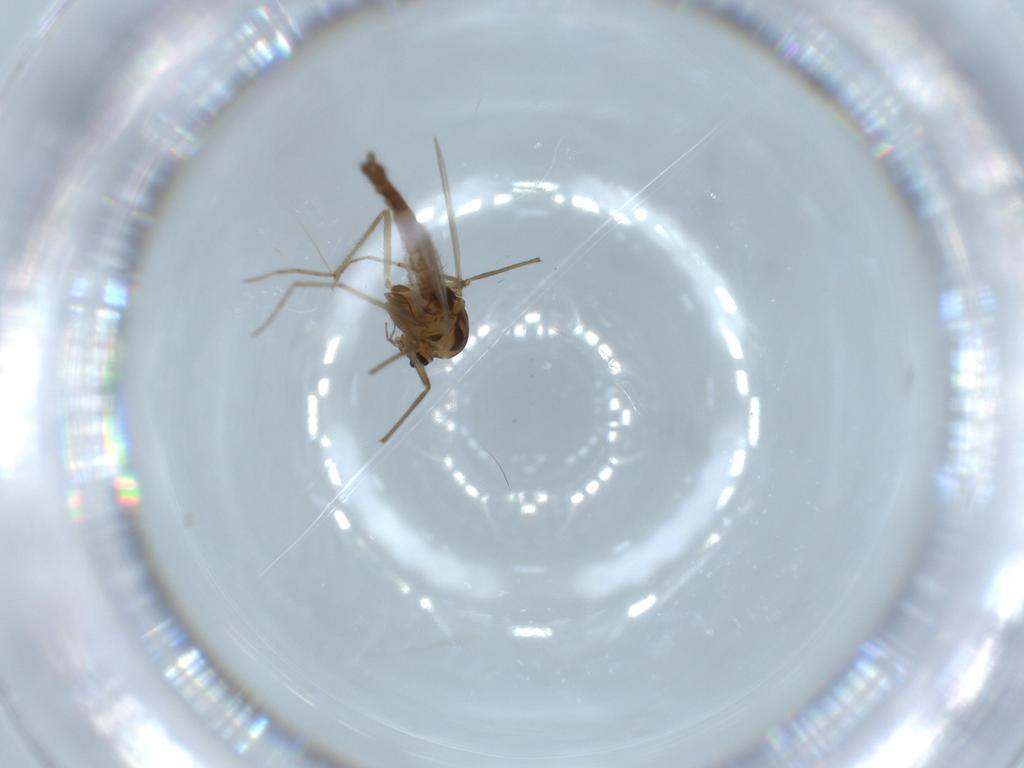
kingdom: Animalia
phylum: Arthropoda
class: Insecta
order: Diptera
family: Chironomidae
